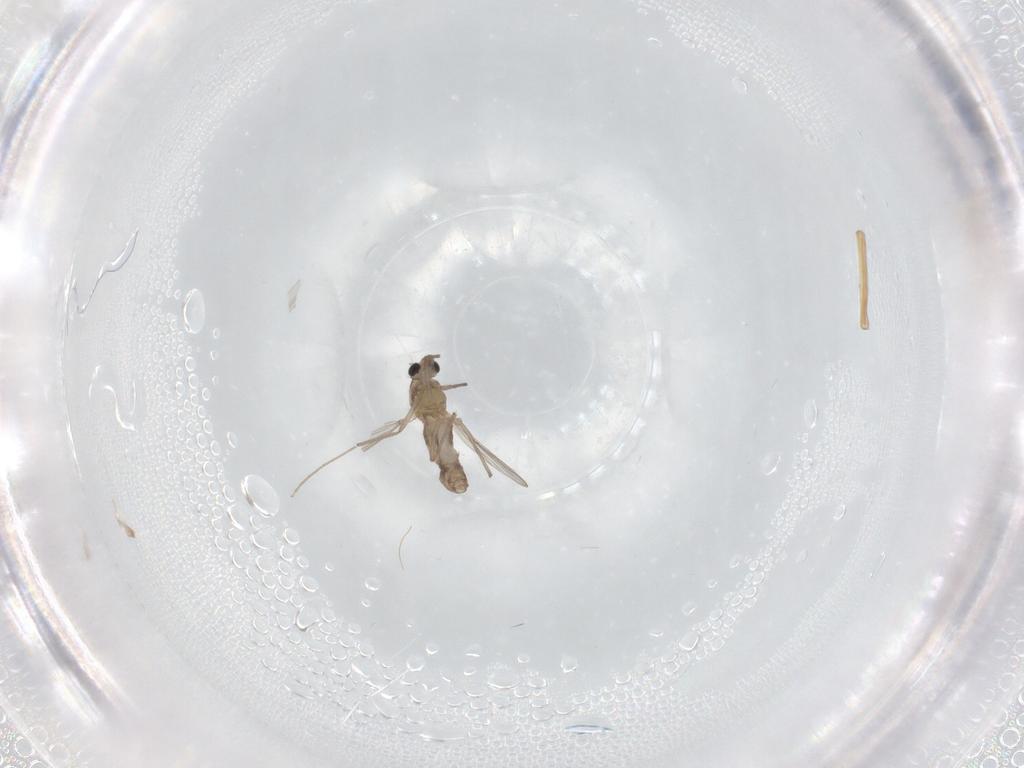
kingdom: Animalia
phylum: Arthropoda
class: Insecta
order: Diptera
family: Chironomidae
